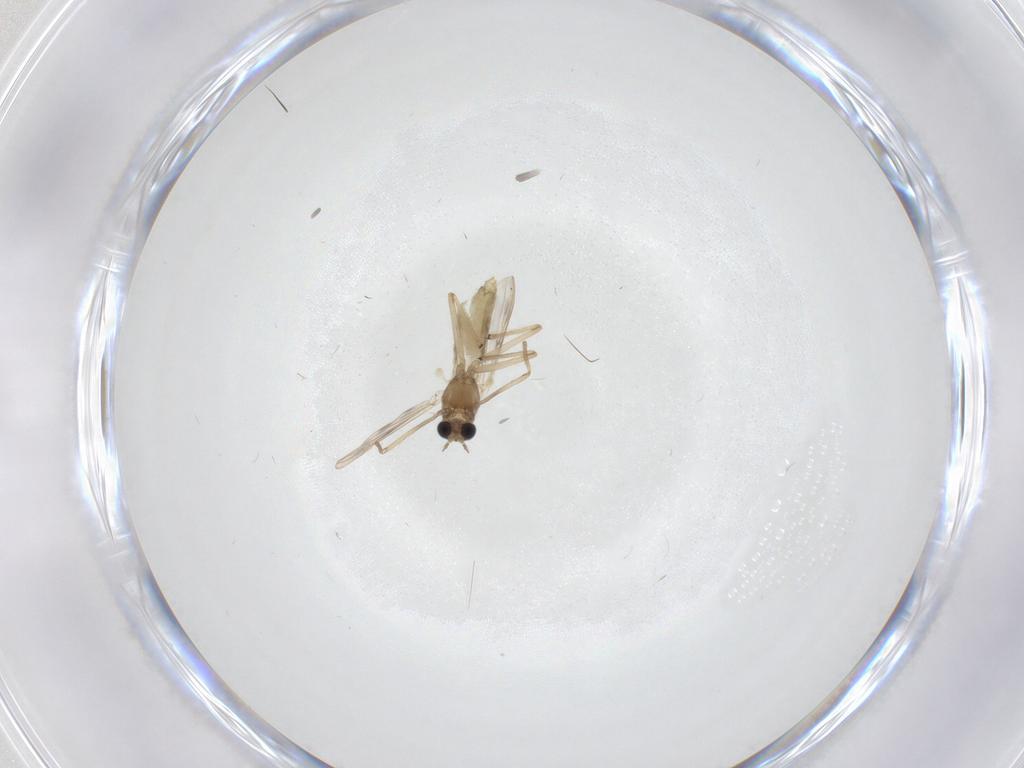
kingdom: Animalia
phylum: Arthropoda
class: Insecta
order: Diptera
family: Chironomidae
